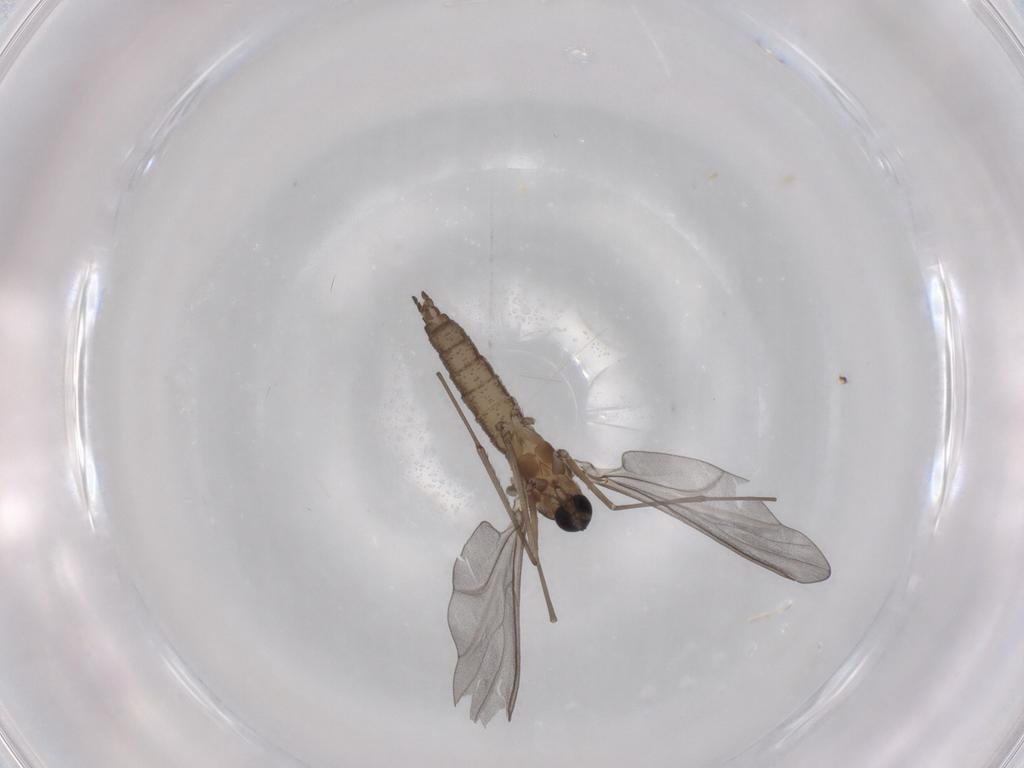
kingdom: Animalia
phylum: Arthropoda
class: Insecta
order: Diptera
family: Cecidomyiidae
